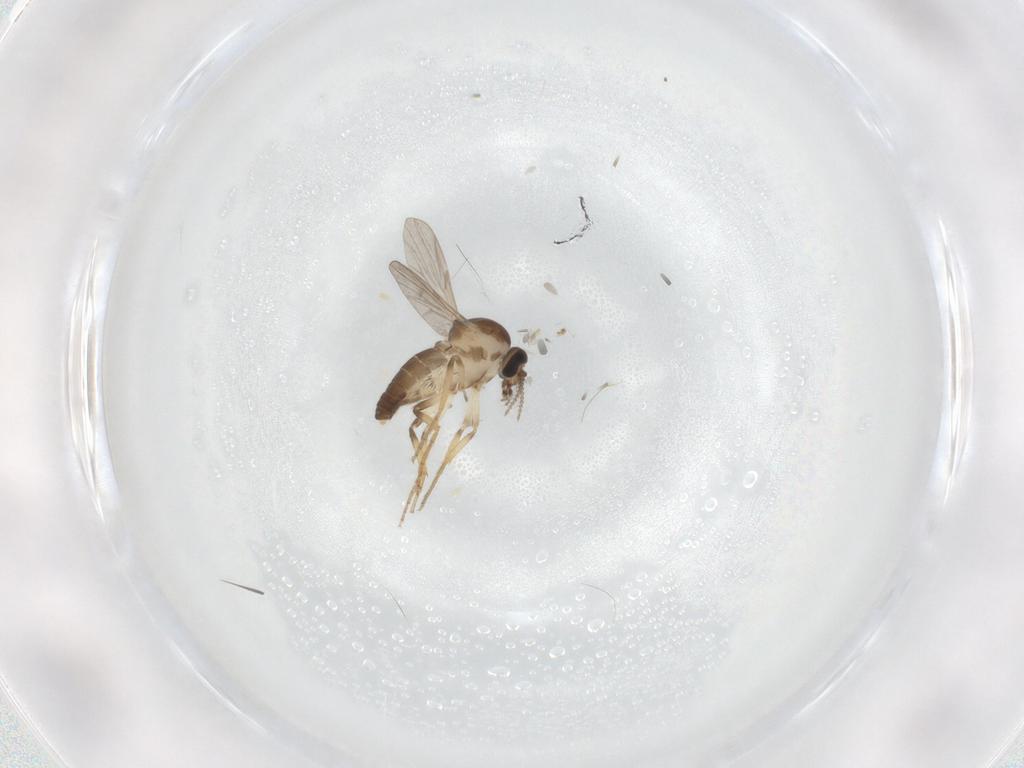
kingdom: Animalia
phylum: Arthropoda
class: Insecta
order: Diptera
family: Ceratopogonidae
